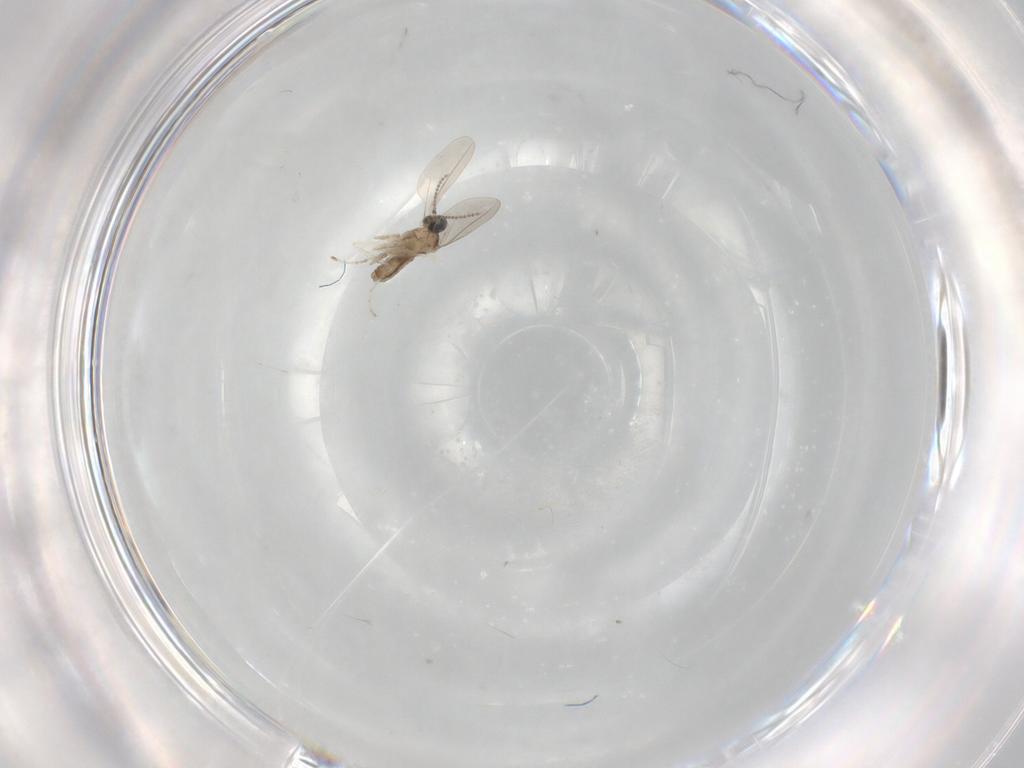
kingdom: Animalia
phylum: Arthropoda
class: Insecta
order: Diptera
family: Cecidomyiidae
